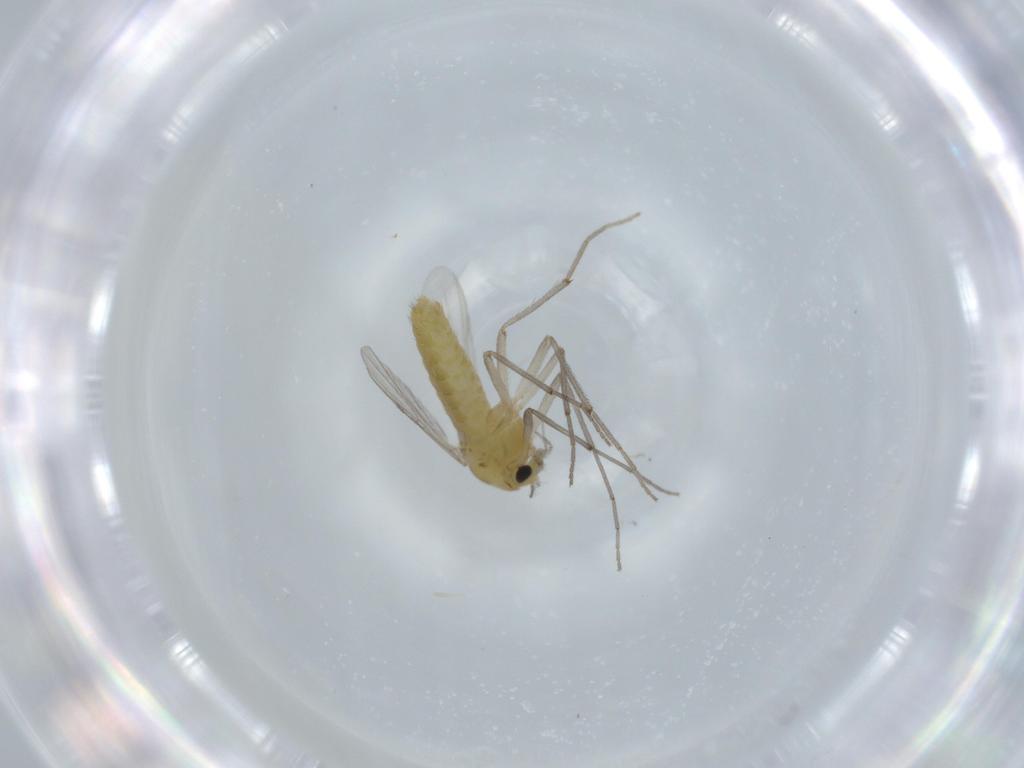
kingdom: Animalia
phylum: Arthropoda
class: Insecta
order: Diptera
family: Chironomidae
